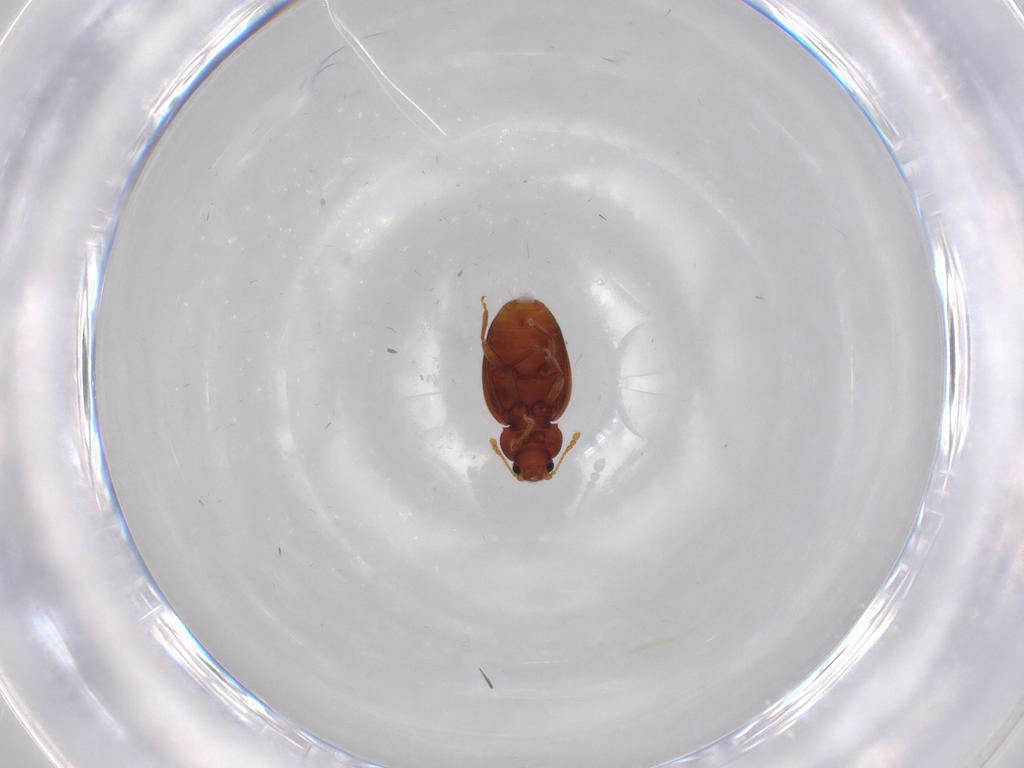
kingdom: Animalia
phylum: Arthropoda
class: Insecta
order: Coleoptera
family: Latridiidae
